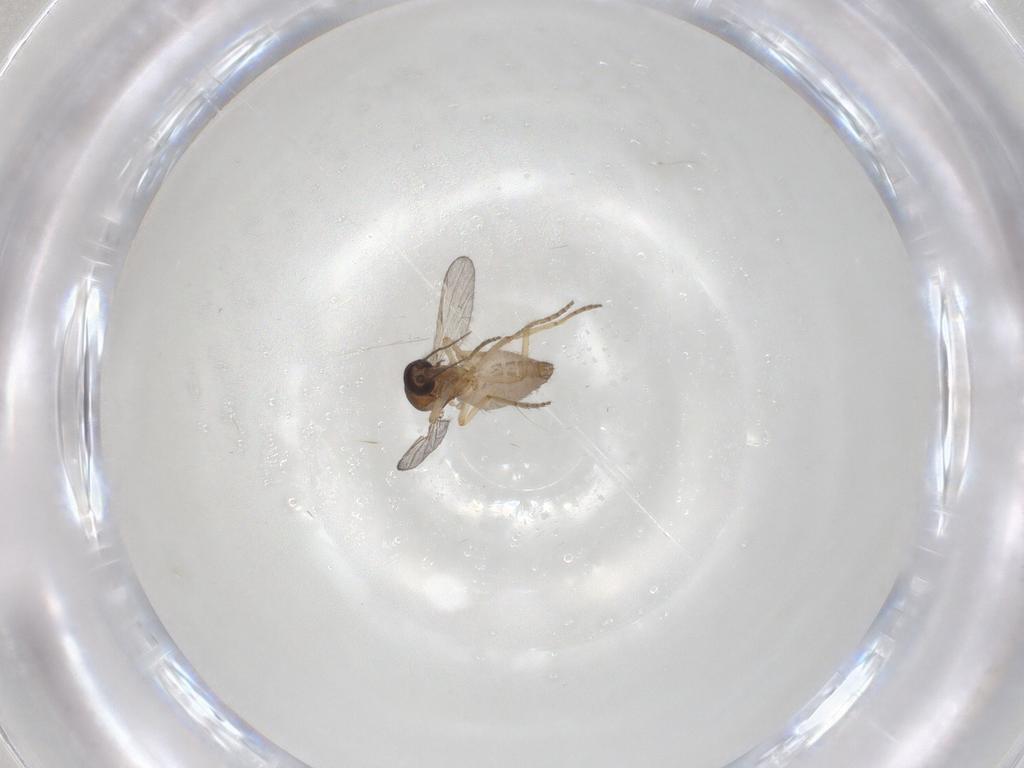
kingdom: Animalia
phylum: Arthropoda
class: Insecta
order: Diptera
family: Ceratopogonidae
